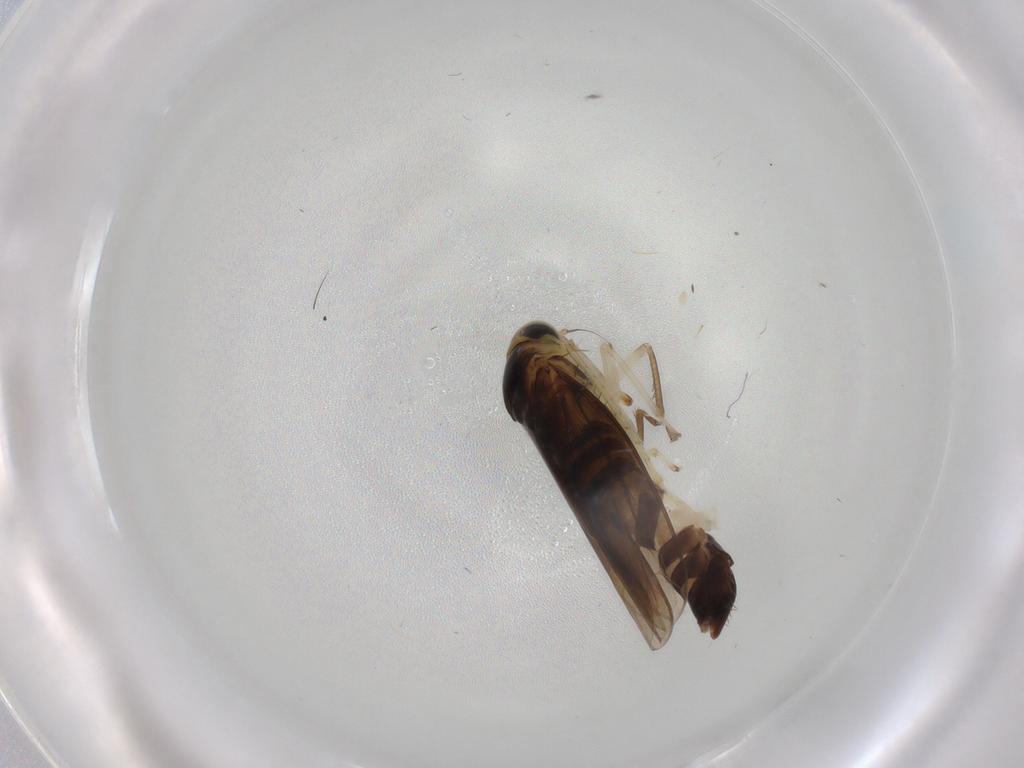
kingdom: Animalia
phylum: Arthropoda
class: Insecta
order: Hemiptera
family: Cicadellidae
